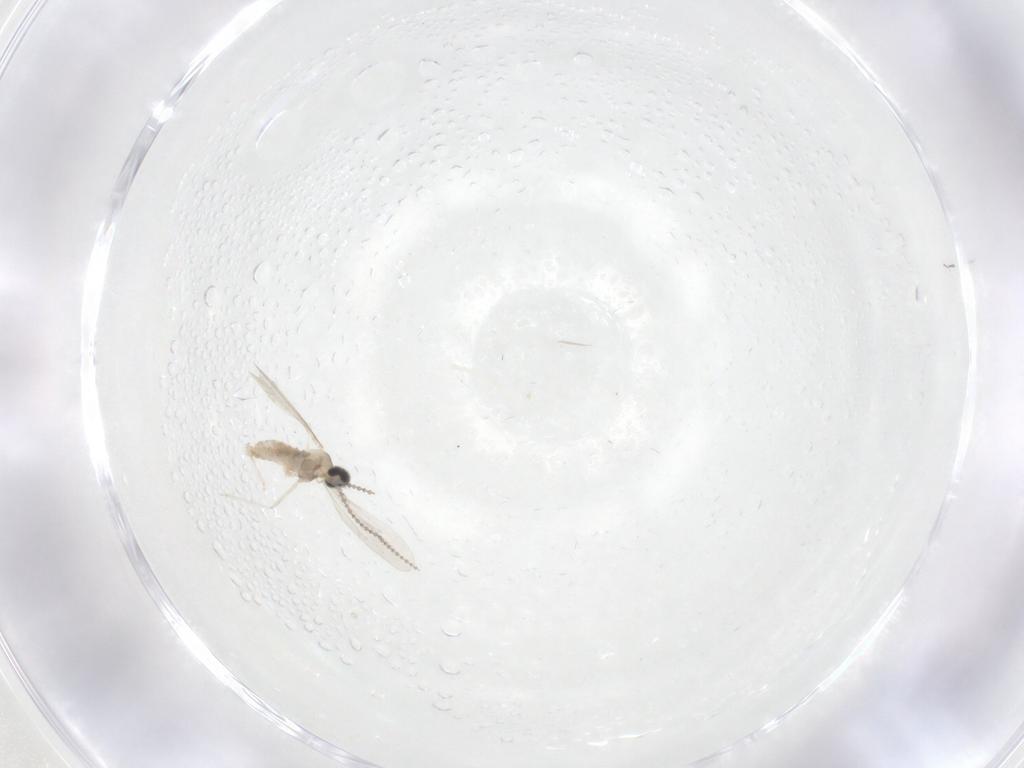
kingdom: Animalia
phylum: Arthropoda
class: Insecta
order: Diptera
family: Cecidomyiidae
